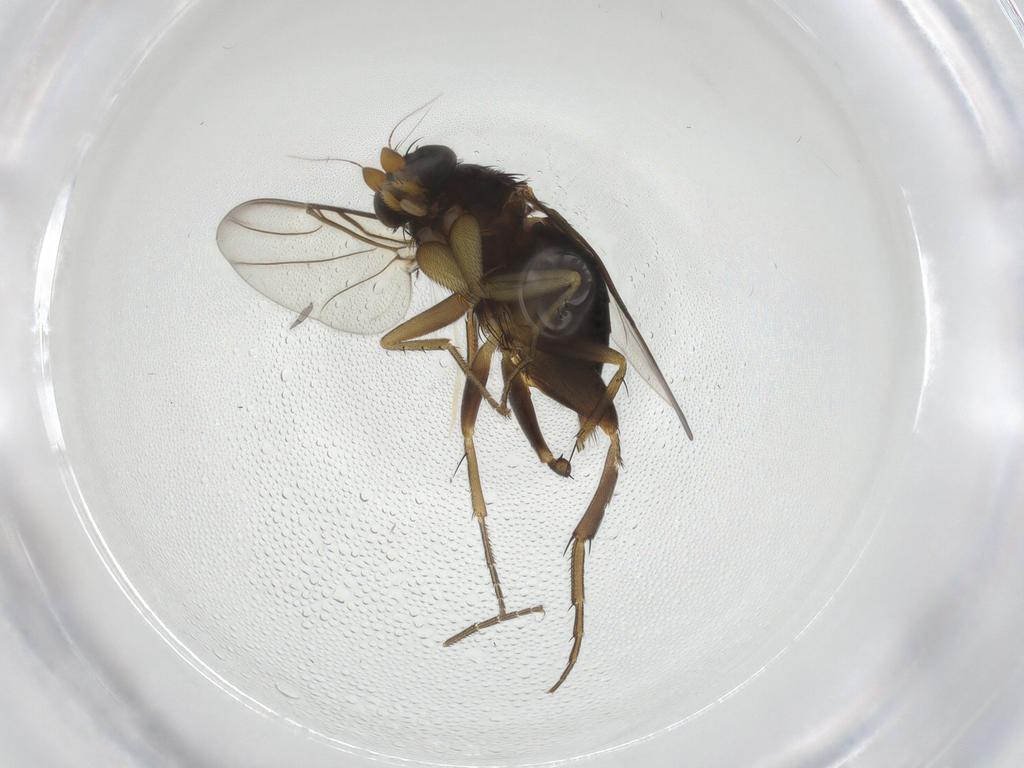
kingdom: Animalia
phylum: Arthropoda
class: Insecta
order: Diptera
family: Phoridae
